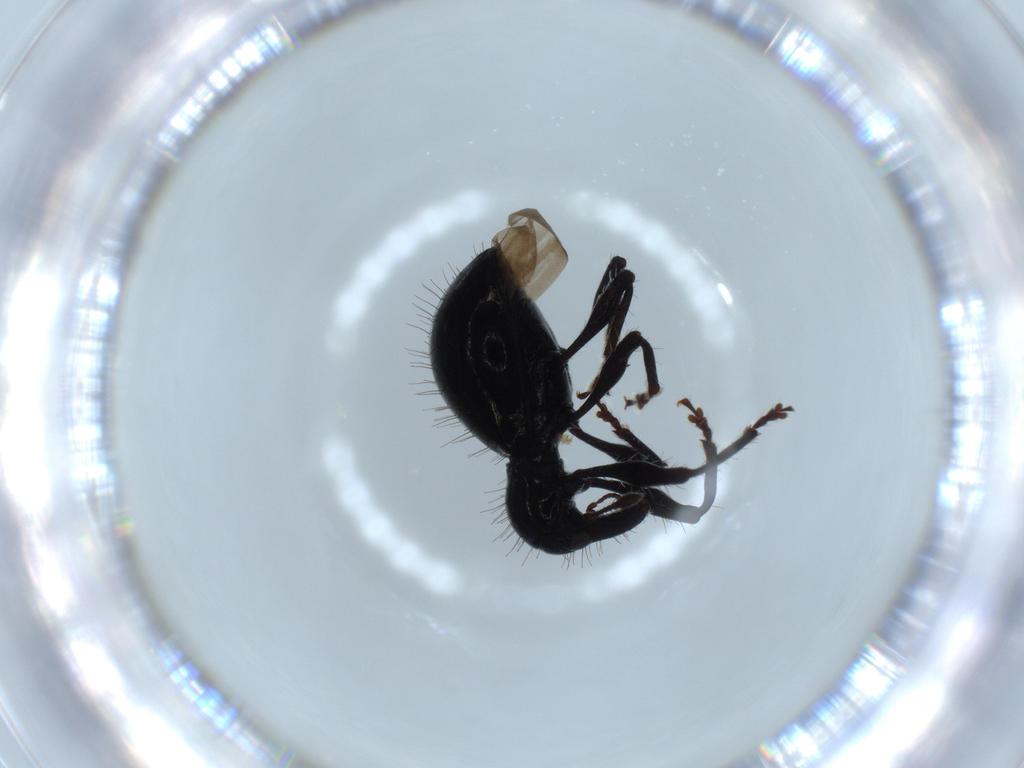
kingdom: Animalia
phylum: Arthropoda
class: Insecta
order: Coleoptera
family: Curculionidae
